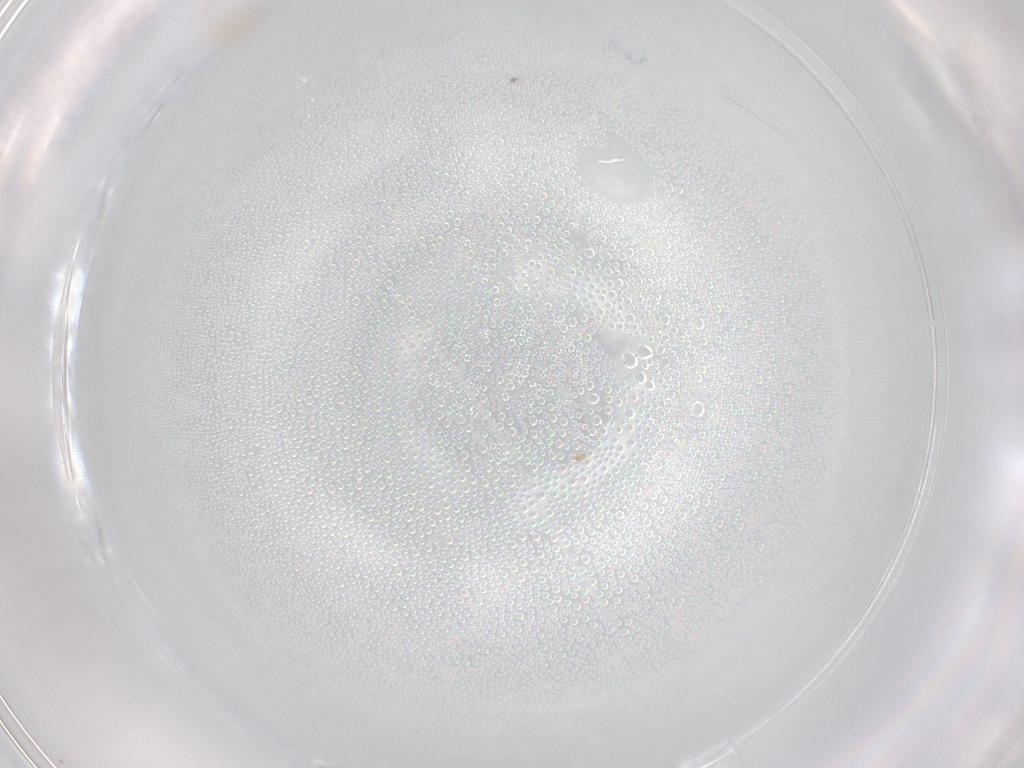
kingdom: Animalia
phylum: Arthropoda
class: Insecta
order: Hymenoptera
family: Mymaridae
